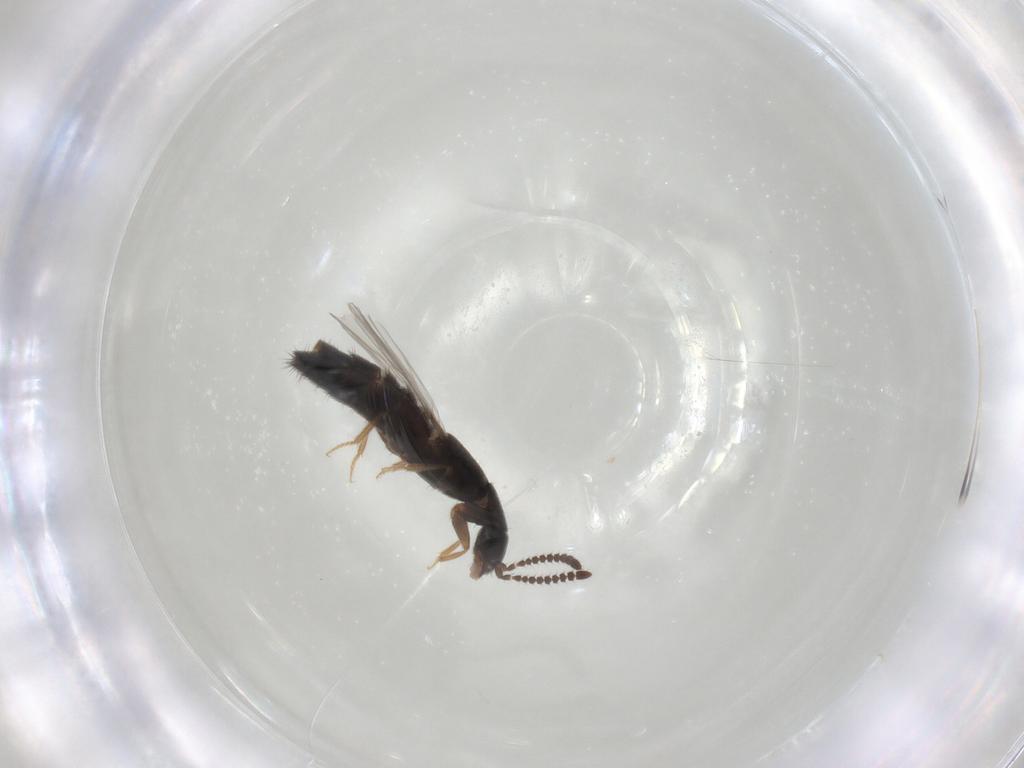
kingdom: Animalia
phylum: Arthropoda
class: Insecta
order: Coleoptera
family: Staphylinidae
